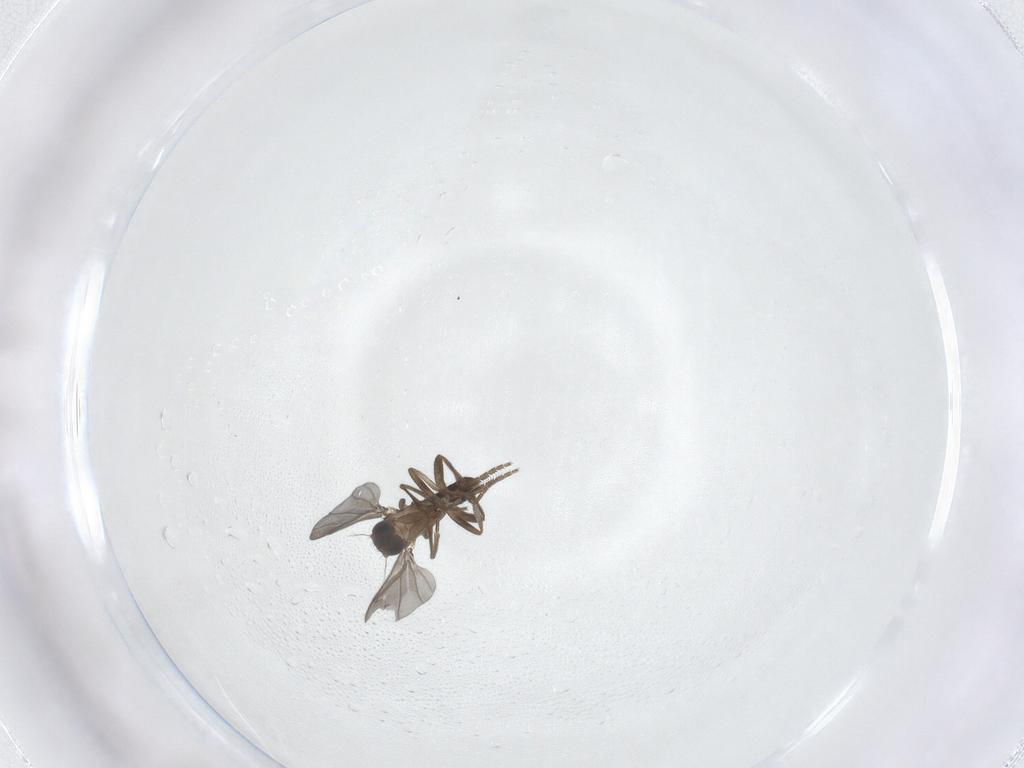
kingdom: Animalia
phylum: Arthropoda
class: Insecta
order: Diptera
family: Phoridae
